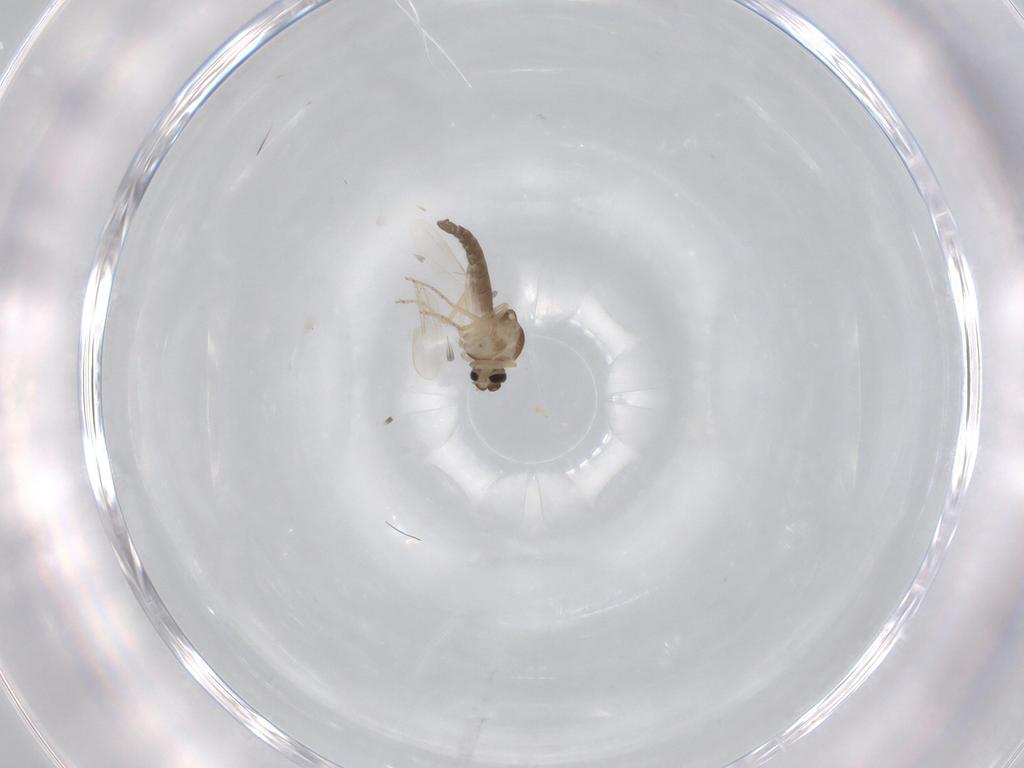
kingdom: Animalia
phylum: Arthropoda
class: Insecta
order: Diptera
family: Ceratopogonidae
